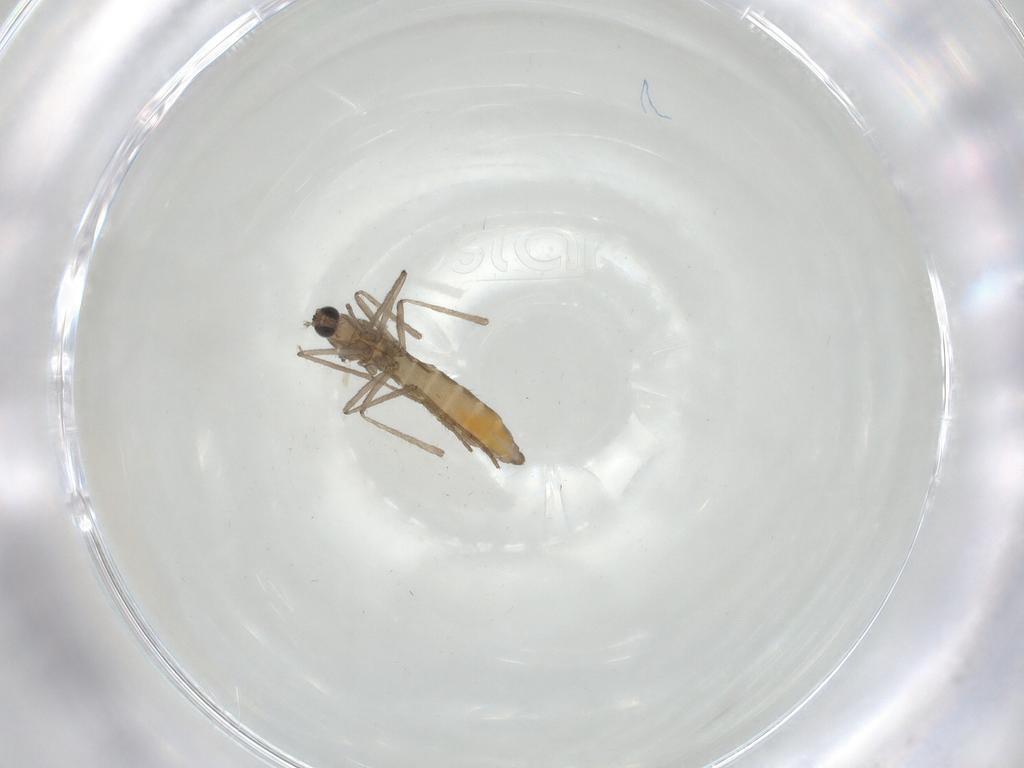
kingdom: Animalia
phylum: Arthropoda
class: Insecta
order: Diptera
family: Cecidomyiidae
